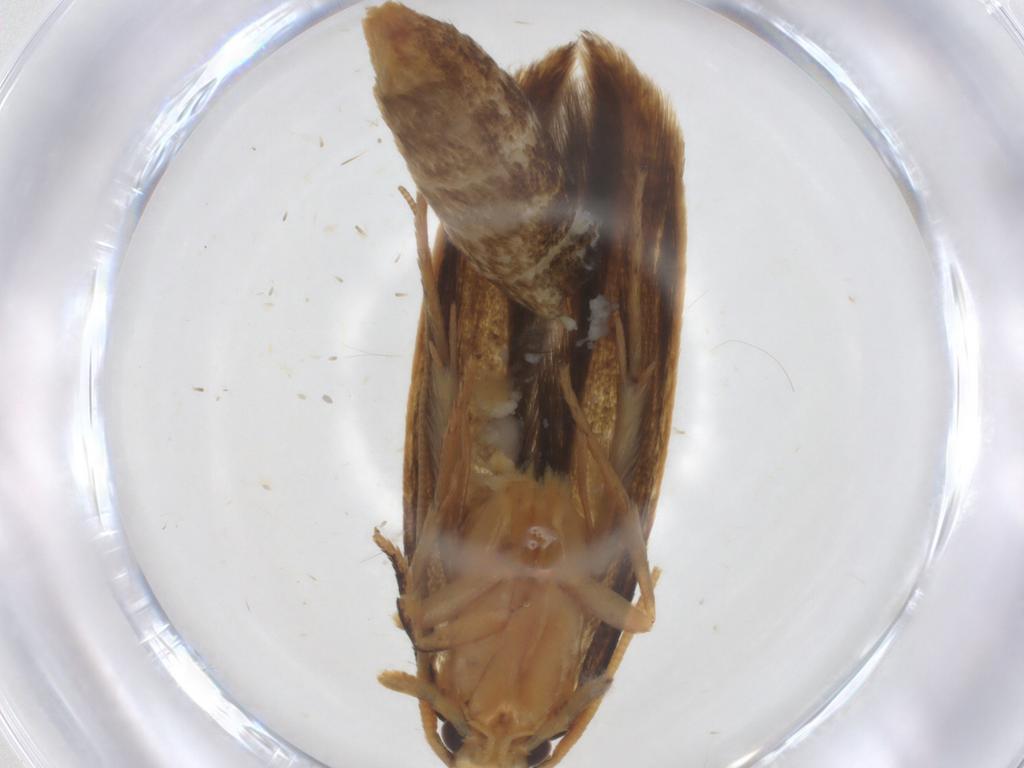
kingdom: Animalia
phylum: Arthropoda
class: Insecta
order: Lepidoptera
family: Tineidae
